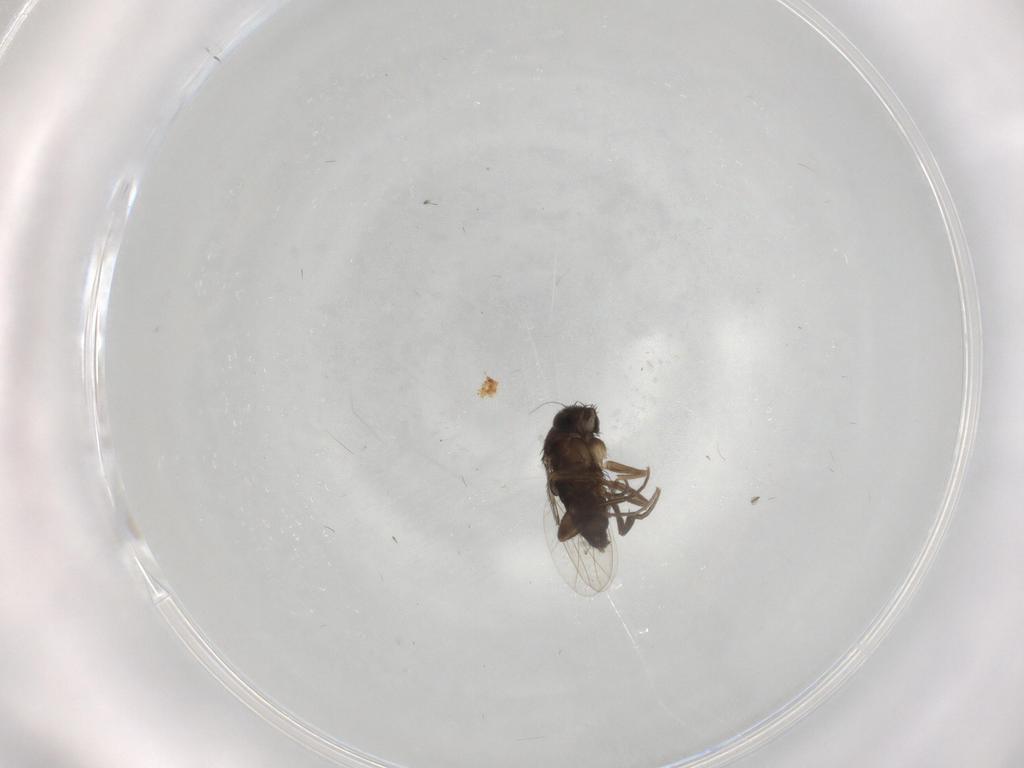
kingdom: Animalia
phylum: Arthropoda
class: Insecta
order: Diptera
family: Phoridae
